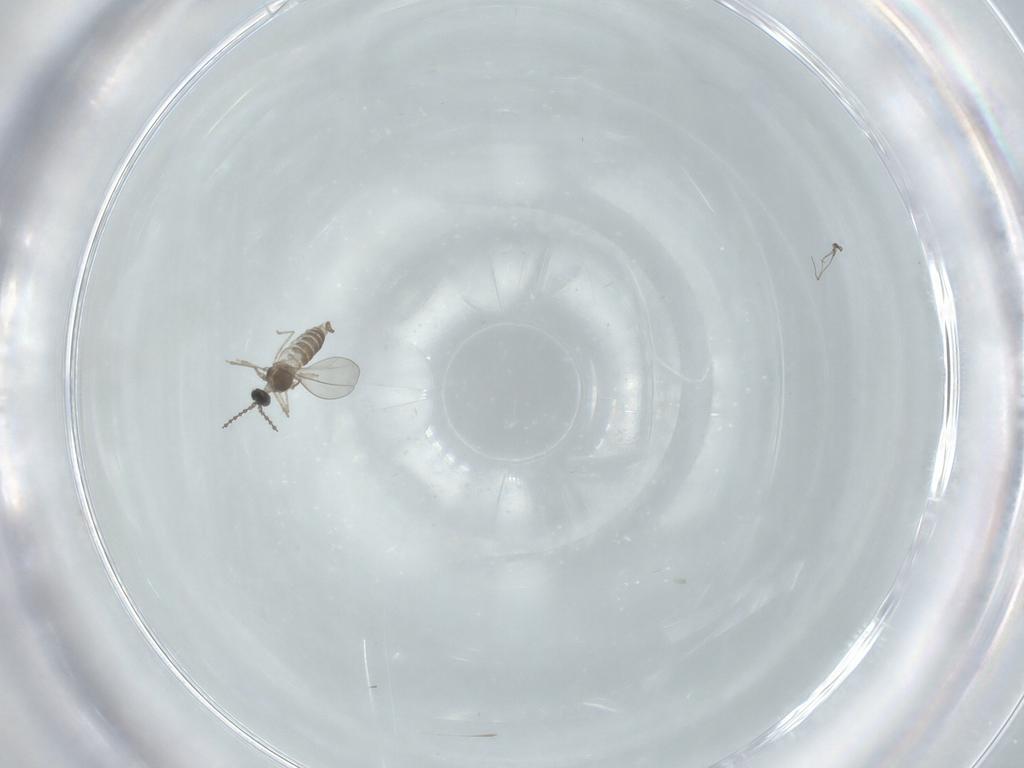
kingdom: Animalia
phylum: Arthropoda
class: Insecta
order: Diptera
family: Cecidomyiidae
